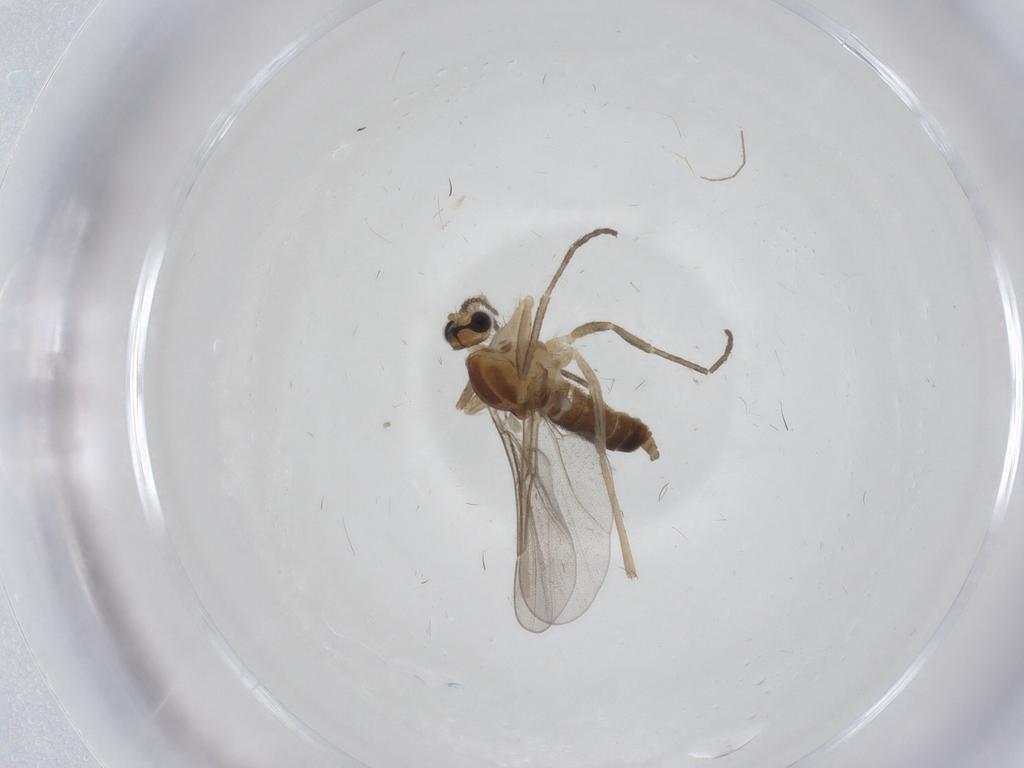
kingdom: Animalia
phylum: Arthropoda
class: Insecta
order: Diptera
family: Cecidomyiidae
